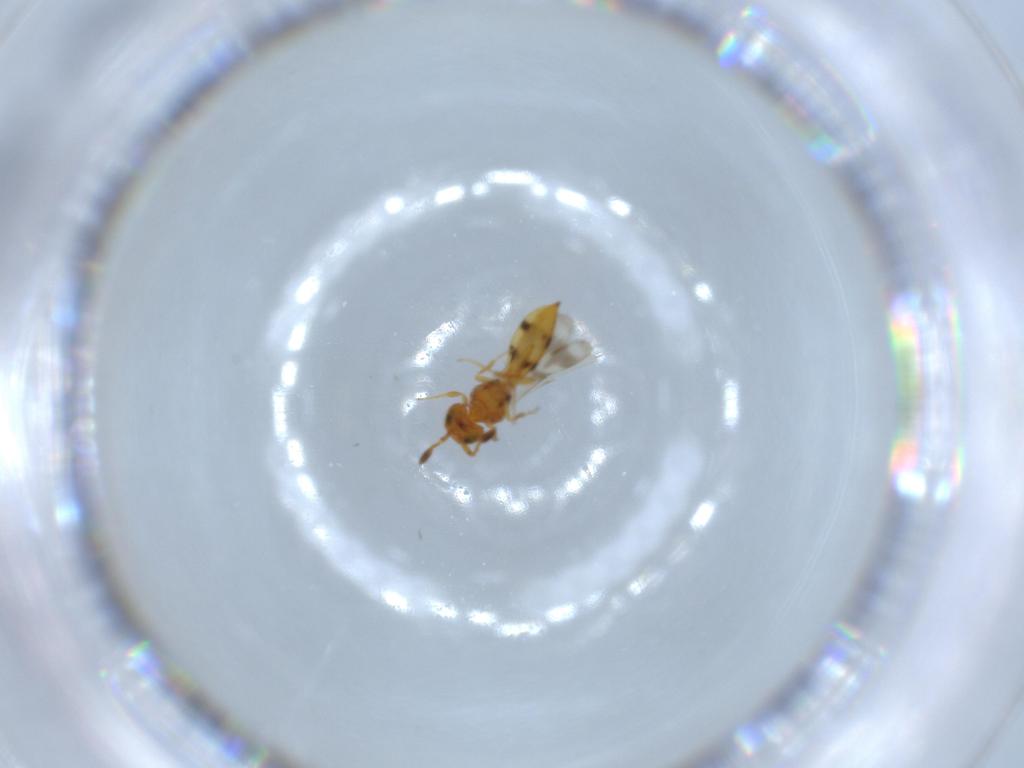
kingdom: Animalia
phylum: Arthropoda
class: Insecta
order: Hymenoptera
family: Scelionidae
